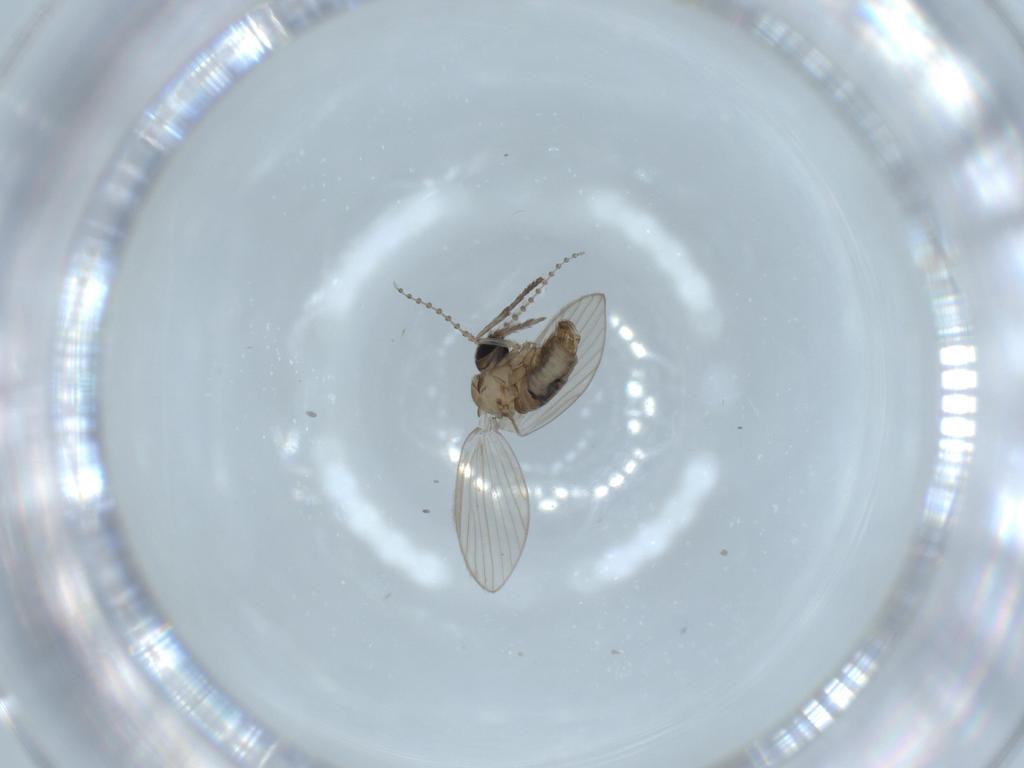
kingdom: Animalia
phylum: Arthropoda
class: Insecta
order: Diptera
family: Psychodidae
